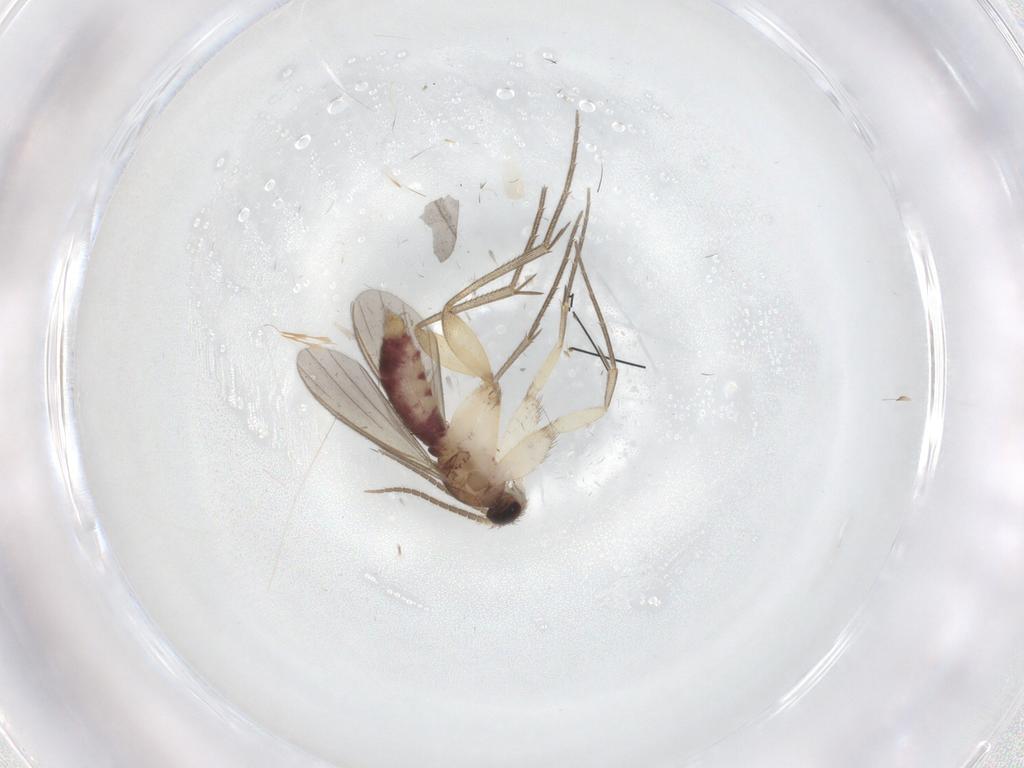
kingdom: Animalia
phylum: Arthropoda
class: Insecta
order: Diptera
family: Mycetophilidae
